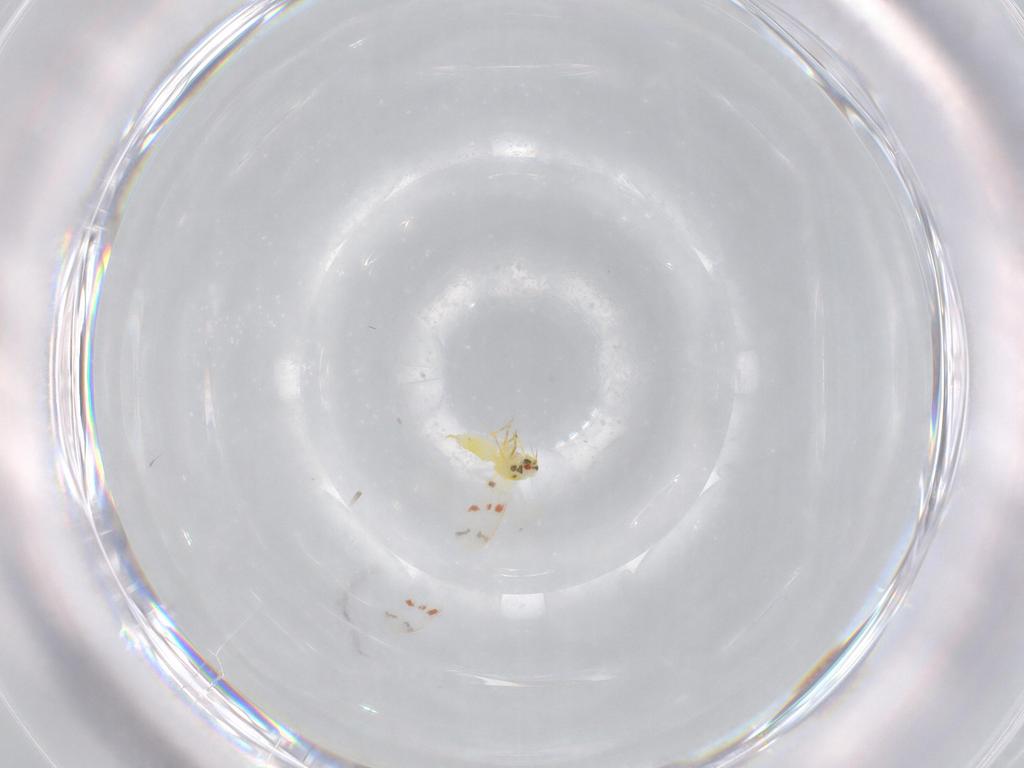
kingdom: Animalia
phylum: Arthropoda
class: Insecta
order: Hemiptera
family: Aleyrodidae
